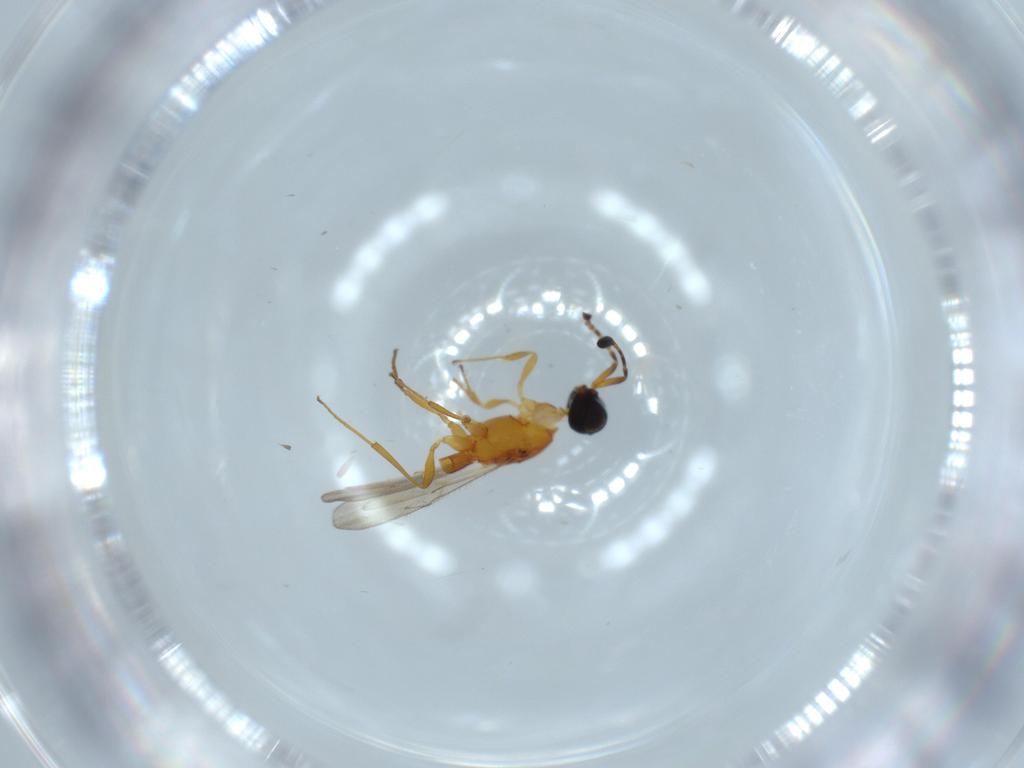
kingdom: Animalia
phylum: Arthropoda
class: Insecta
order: Hymenoptera
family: Scelionidae
